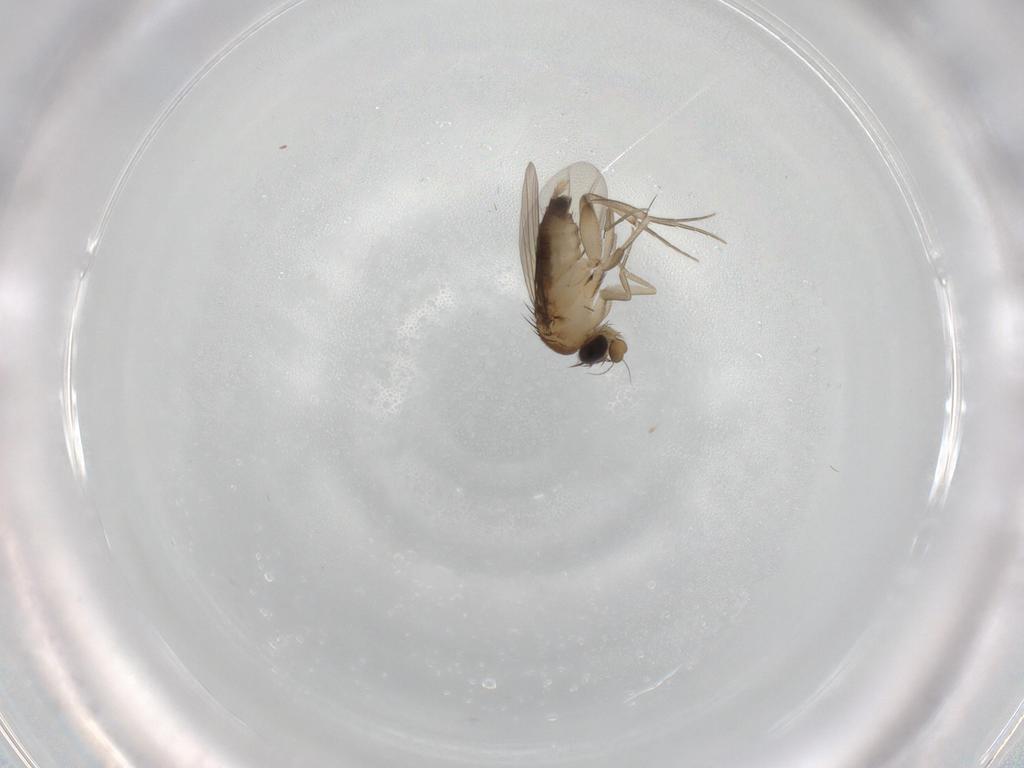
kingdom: Animalia
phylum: Arthropoda
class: Insecta
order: Diptera
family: Phoridae
